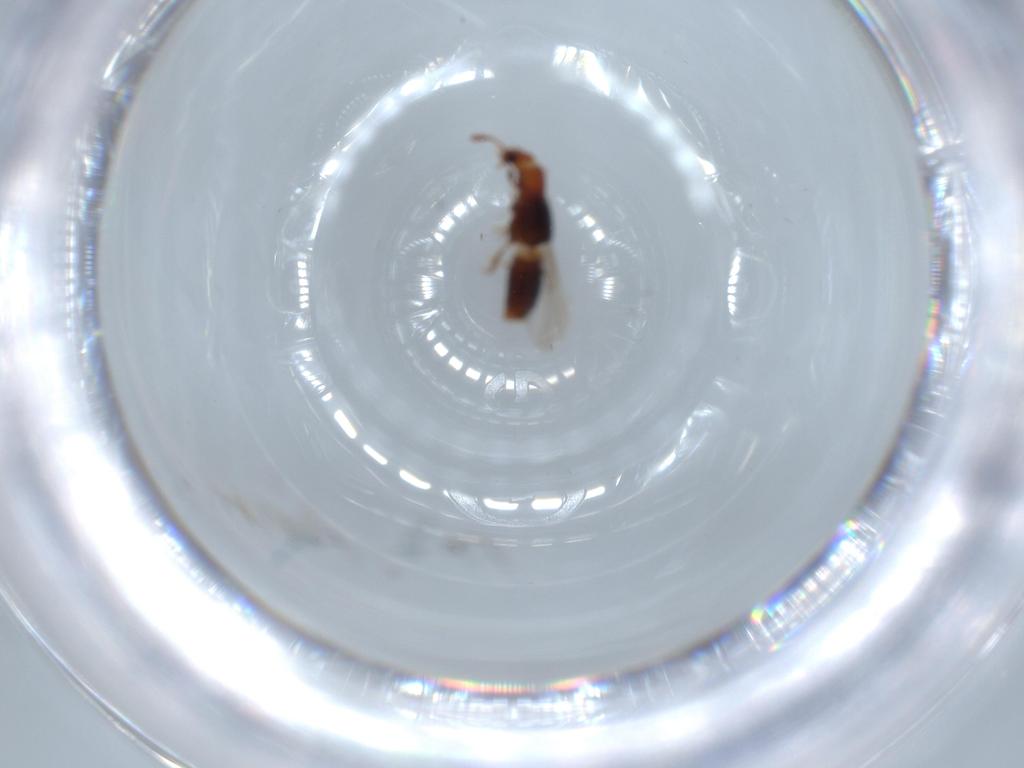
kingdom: Animalia
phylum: Arthropoda
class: Insecta
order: Coleoptera
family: Staphylinidae
